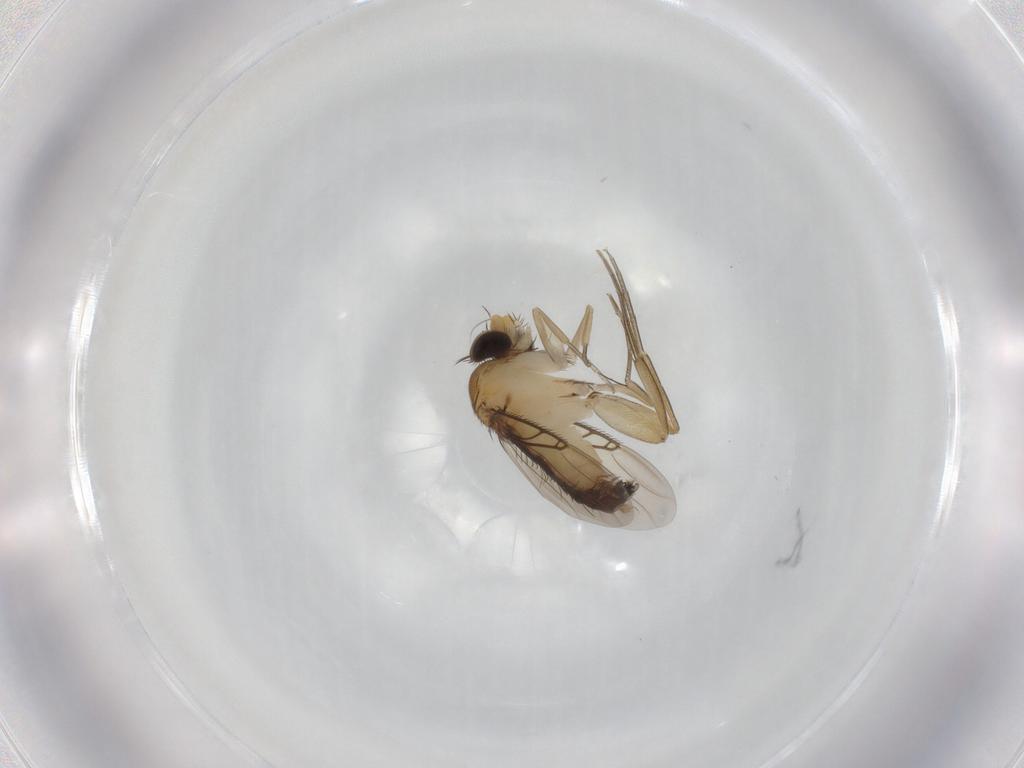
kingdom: Animalia
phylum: Arthropoda
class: Insecta
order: Diptera
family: Phoridae
